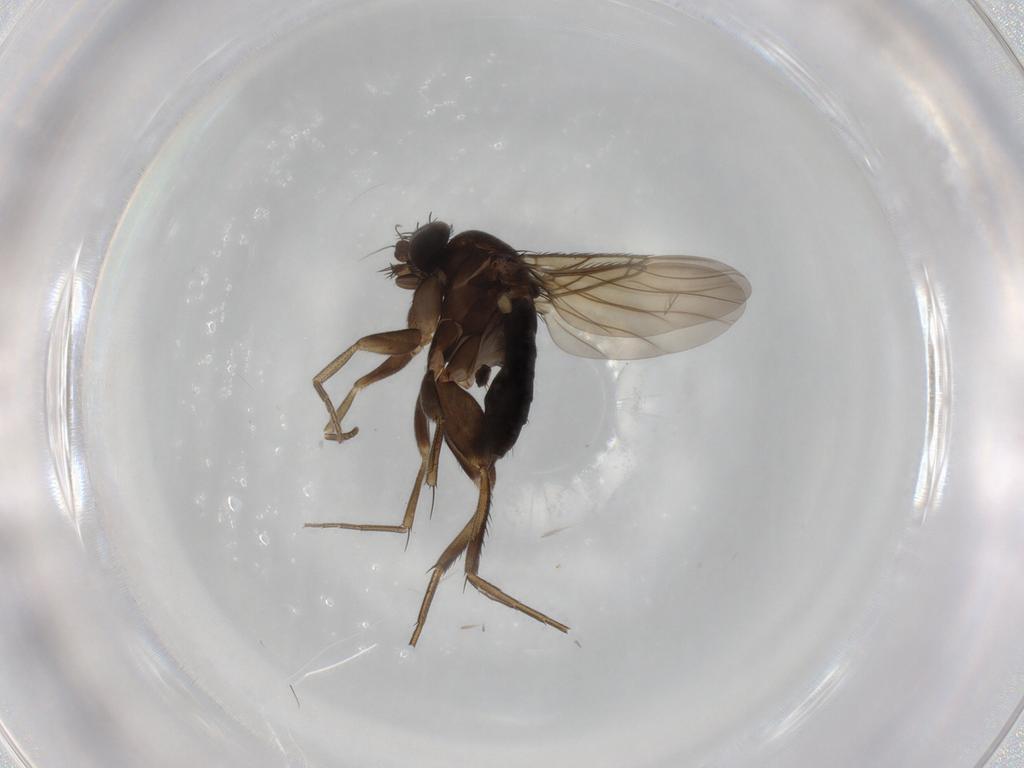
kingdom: Animalia
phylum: Arthropoda
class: Insecta
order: Diptera
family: Phoridae
